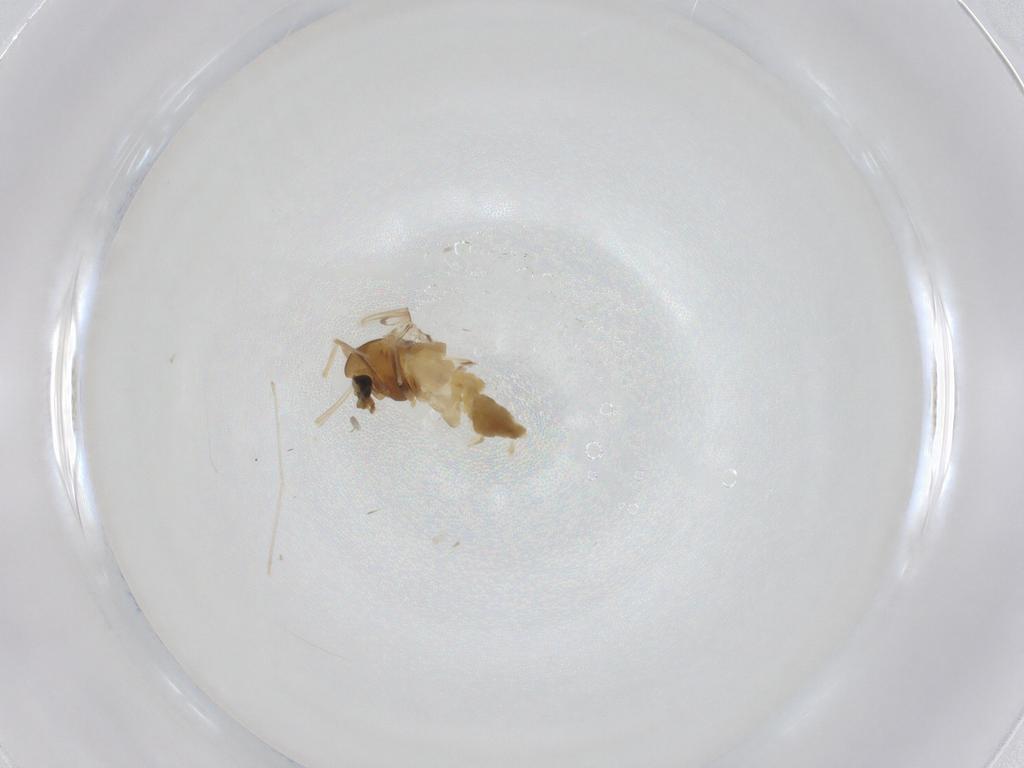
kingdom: Animalia
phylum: Arthropoda
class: Insecta
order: Diptera
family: Chironomidae
